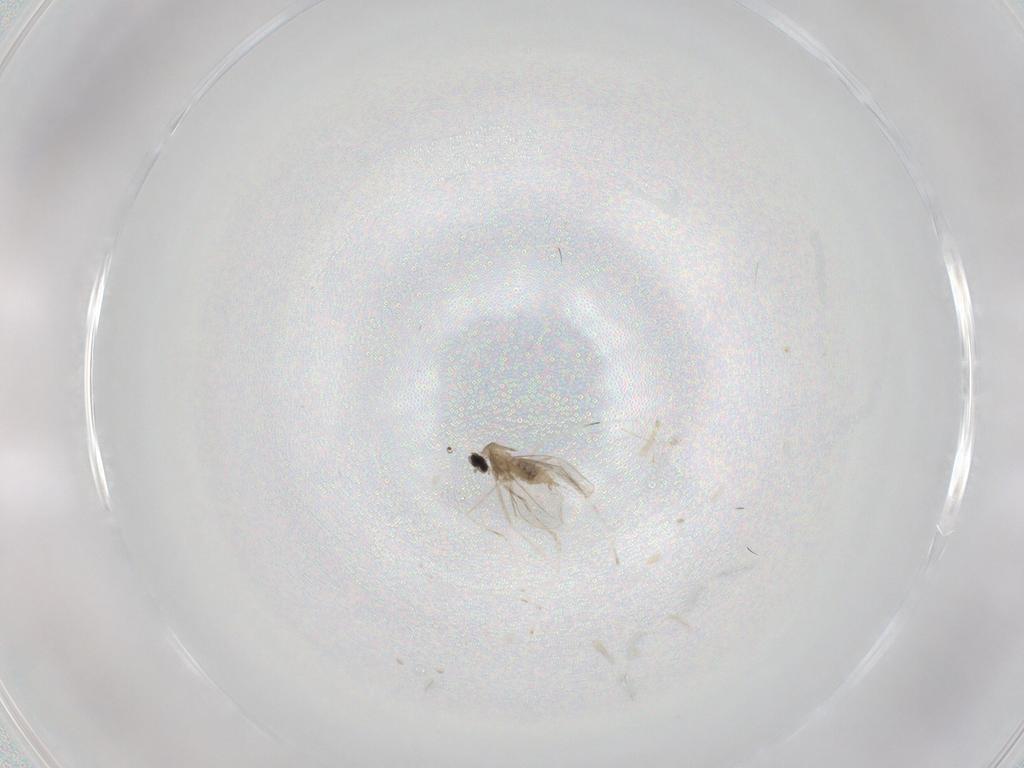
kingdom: Animalia
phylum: Arthropoda
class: Insecta
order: Diptera
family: Cecidomyiidae
